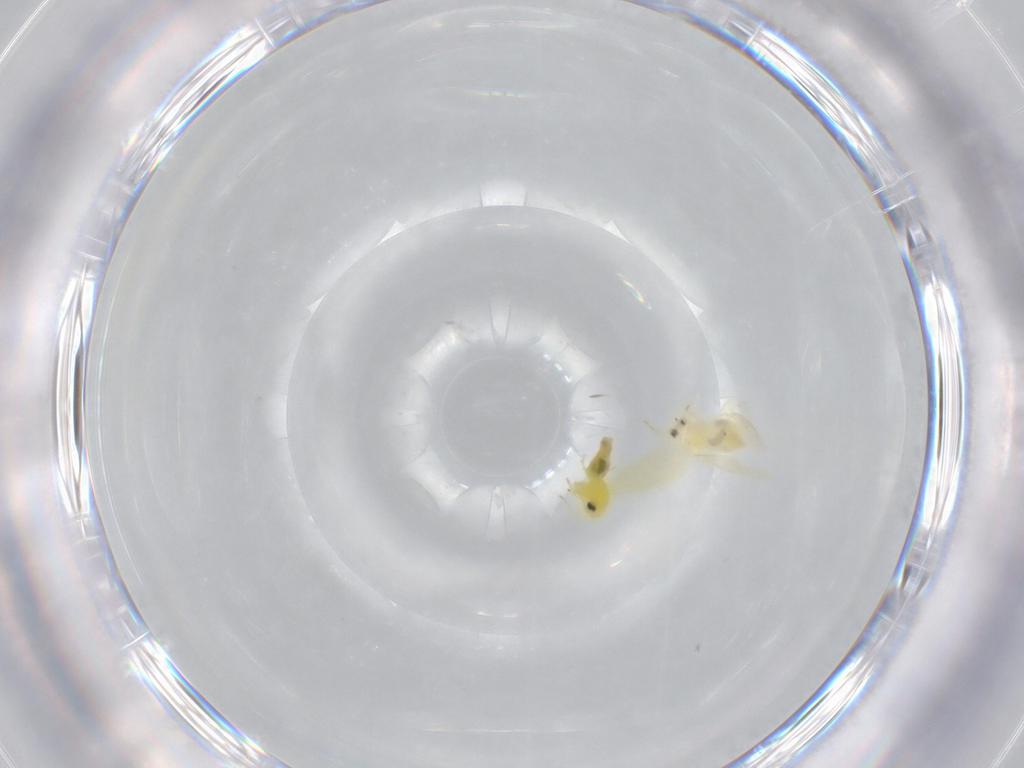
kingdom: Animalia
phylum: Arthropoda
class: Insecta
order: Hemiptera
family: Aleyrodidae
